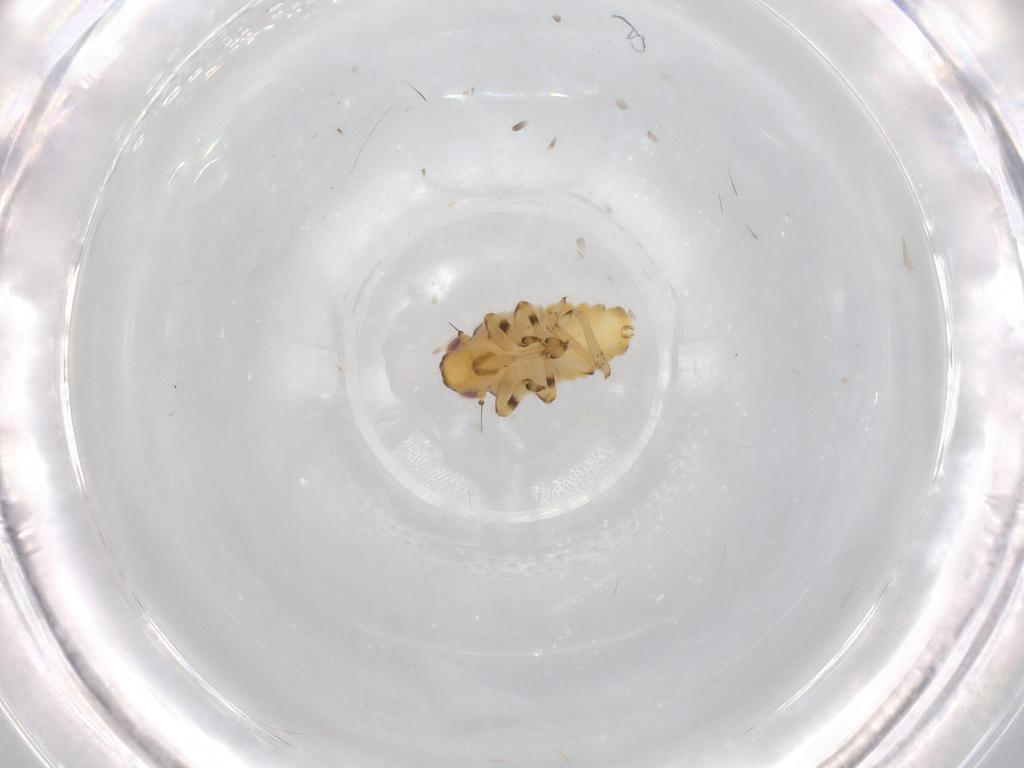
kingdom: Animalia
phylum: Arthropoda
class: Insecta
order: Hemiptera
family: Issidae
